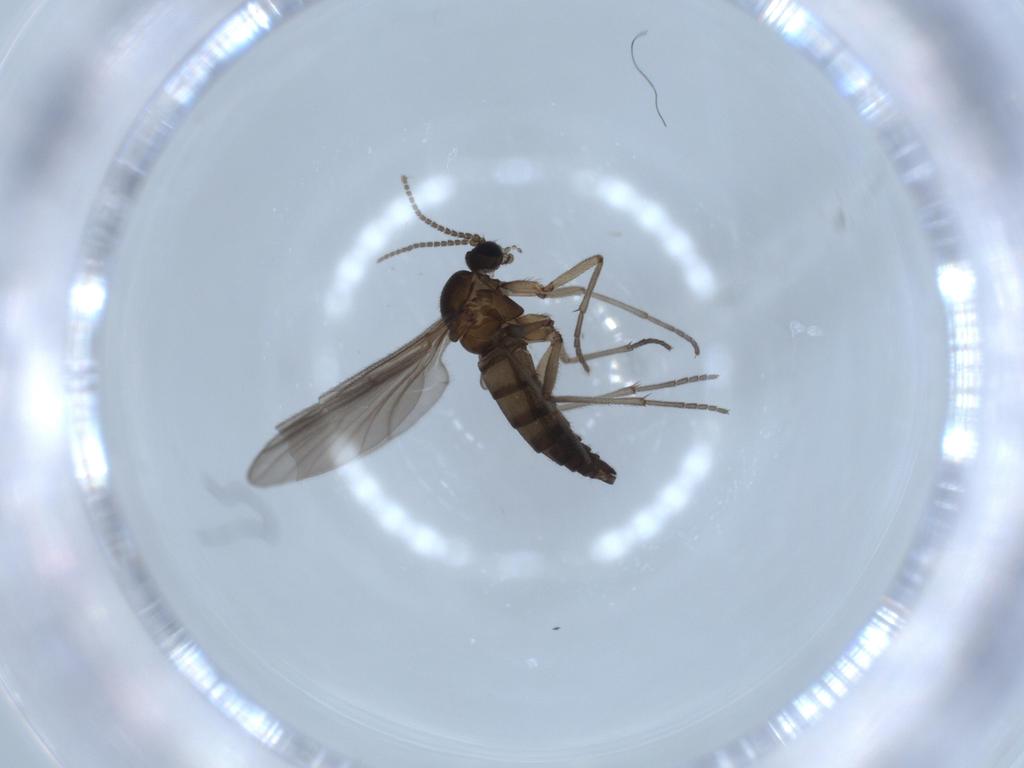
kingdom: Animalia
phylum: Arthropoda
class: Insecta
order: Diptera
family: Sciaridae
